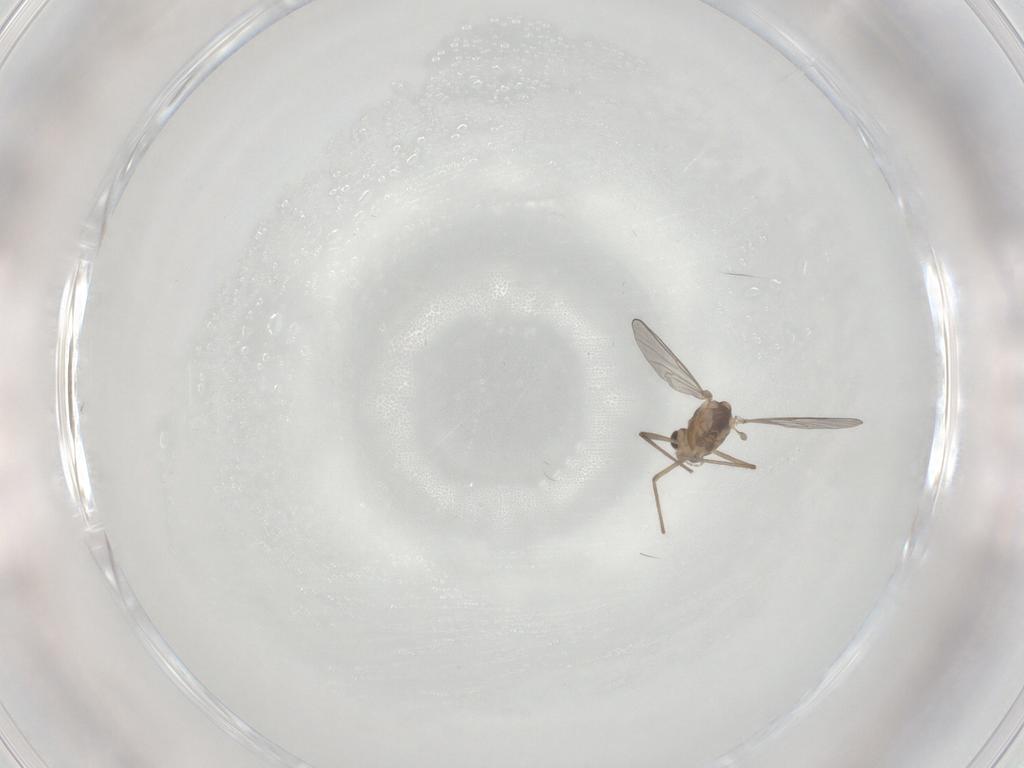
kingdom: Animalia
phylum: Arthropoda
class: Insecta
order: Diptera
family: Chironomidae
